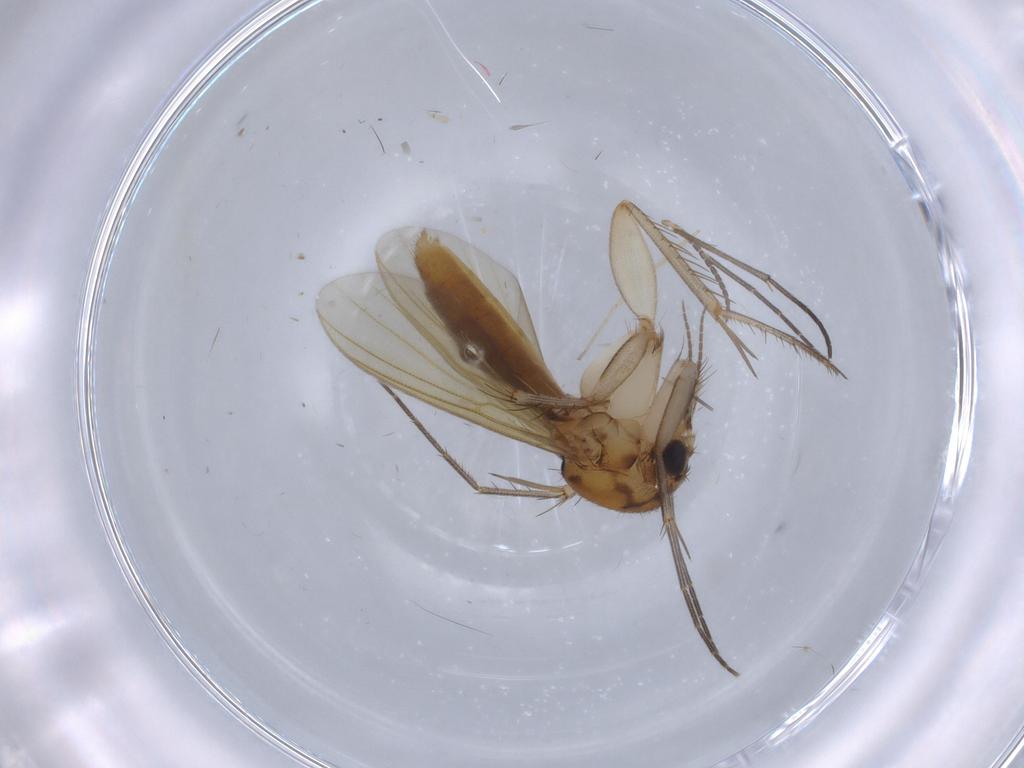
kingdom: Animalia
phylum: Arthropoda
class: Insecta
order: Diptera
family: Mycetophilidae
